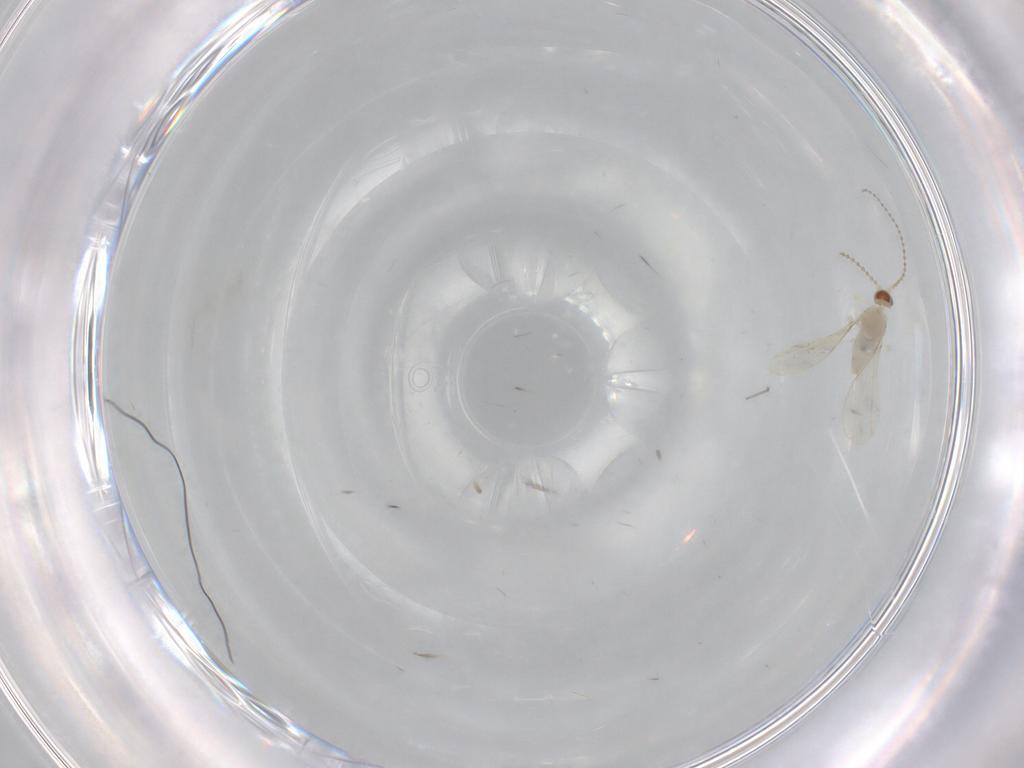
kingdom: Animalia
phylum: Arthropoda
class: Insecta
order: Diptera
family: Cecidomyiidae
